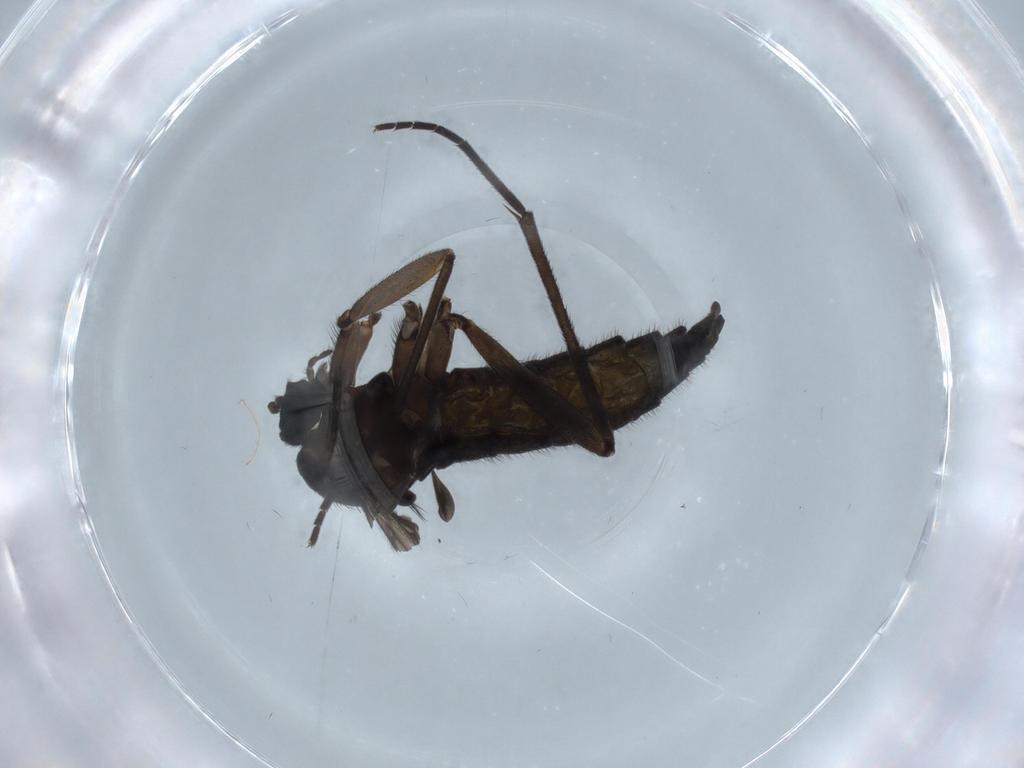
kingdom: Animalia
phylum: Arthropoda
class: Insecta
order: Diptera
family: Sciaridae
